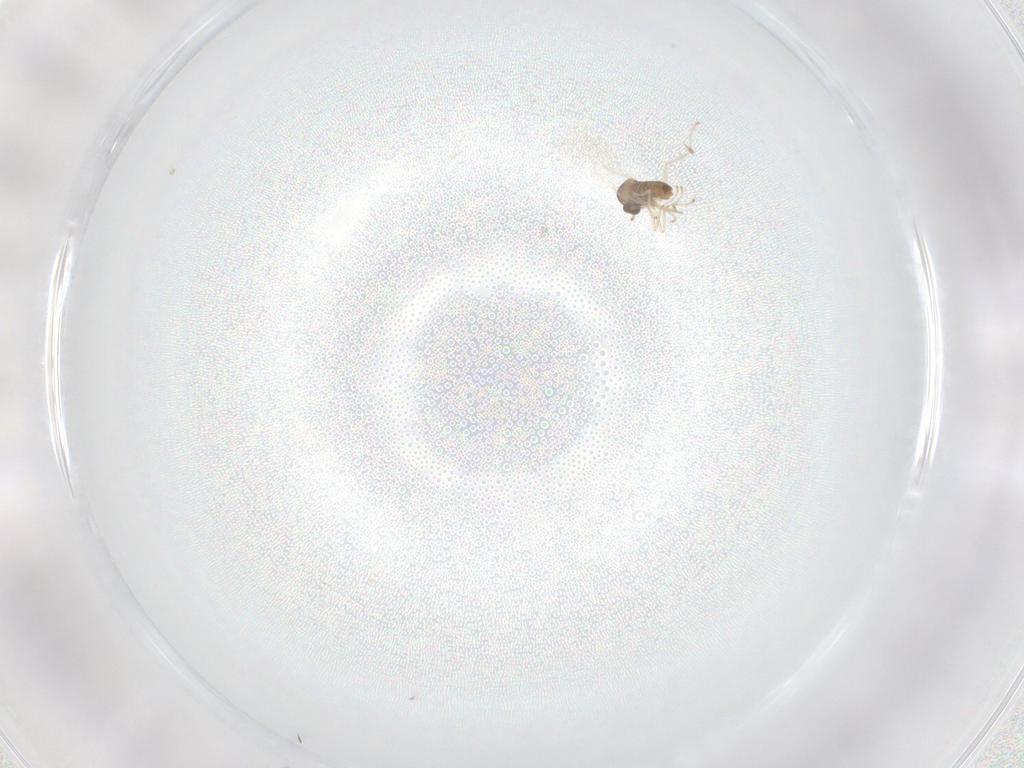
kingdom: Animalia
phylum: Arthropoda
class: Insecta
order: Diptera
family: Cecidomyiidae
